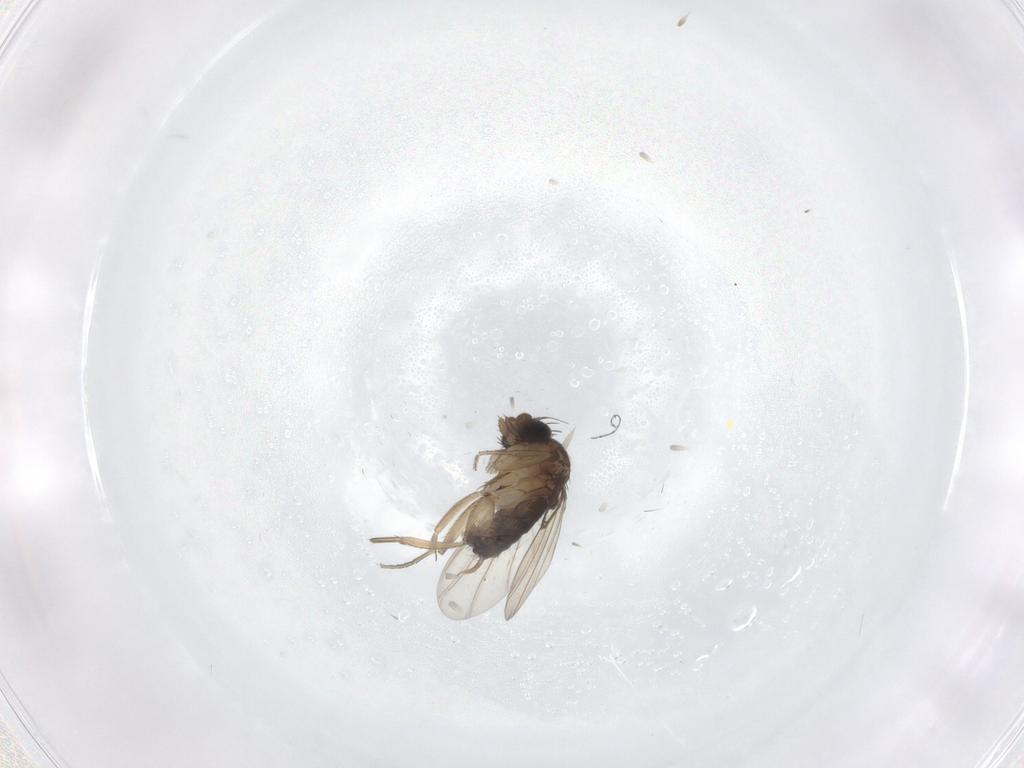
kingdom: Animalia
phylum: Arthropoda
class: Insecta
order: Diptera
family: Phoridae
